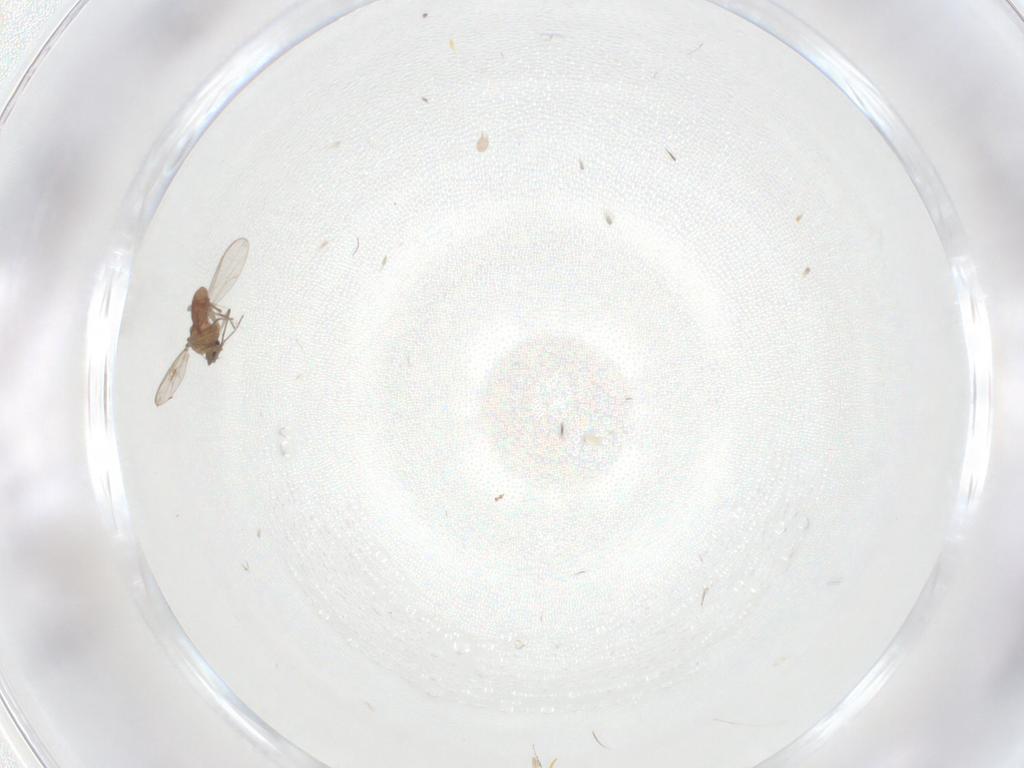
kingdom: Animalia
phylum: Arthropoda
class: Insecta
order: Diptera
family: Chironomidae
